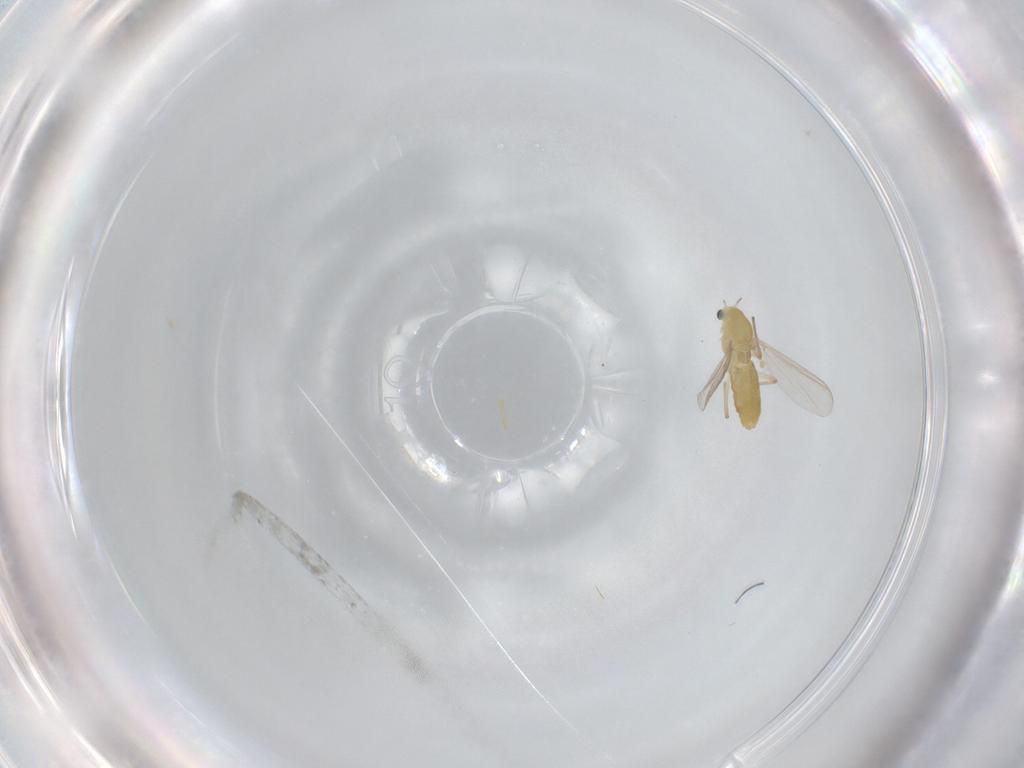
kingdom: Animalia
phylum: Arthropoda
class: Insecta
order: Diptera
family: Chironomidae
